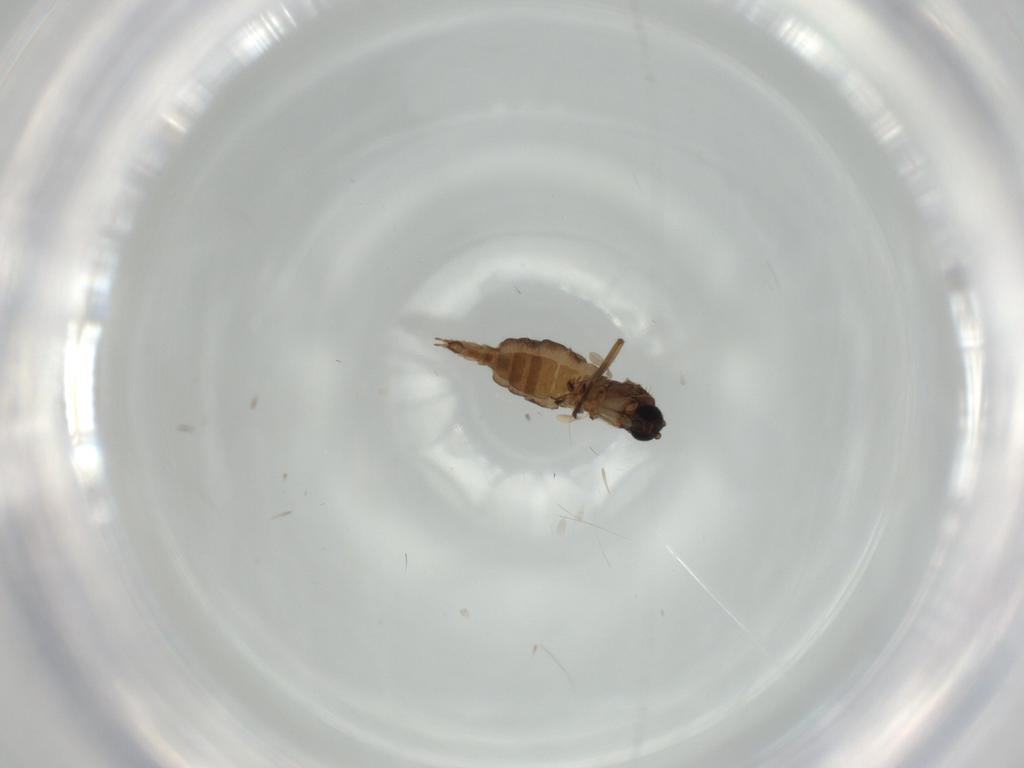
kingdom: Animalia
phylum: Arthropoda
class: Insecta
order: Diptera
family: Sciaridae
